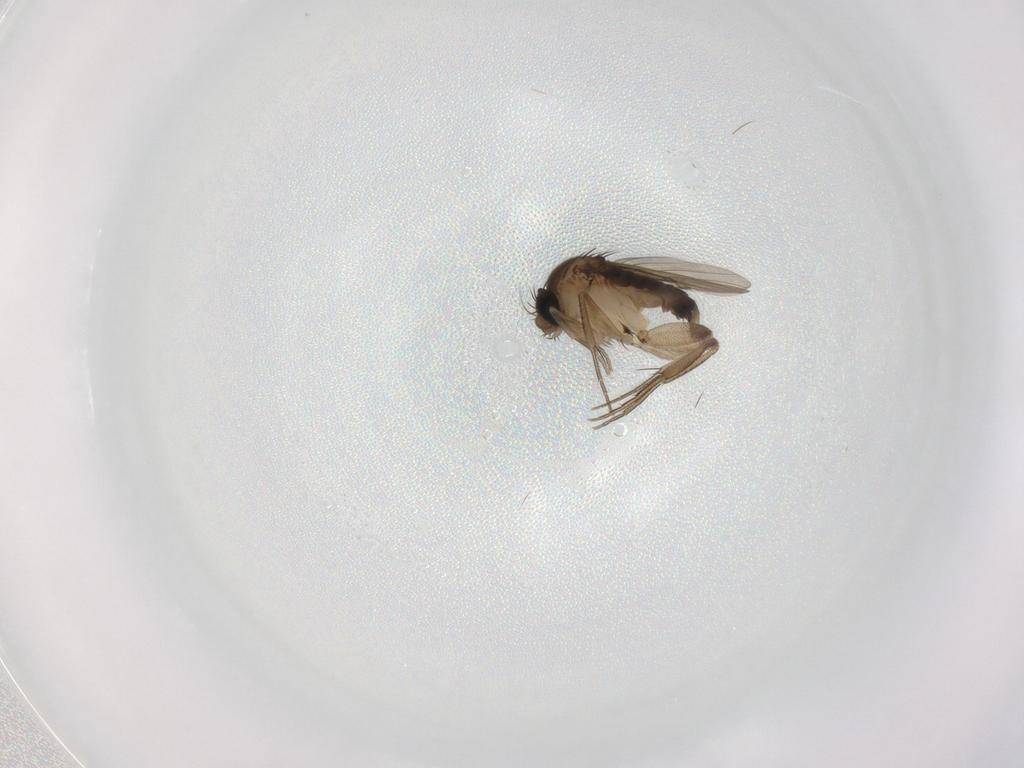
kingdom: Animalia
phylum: Arthropoda
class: Insecta
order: Diptera
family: Phoridae
